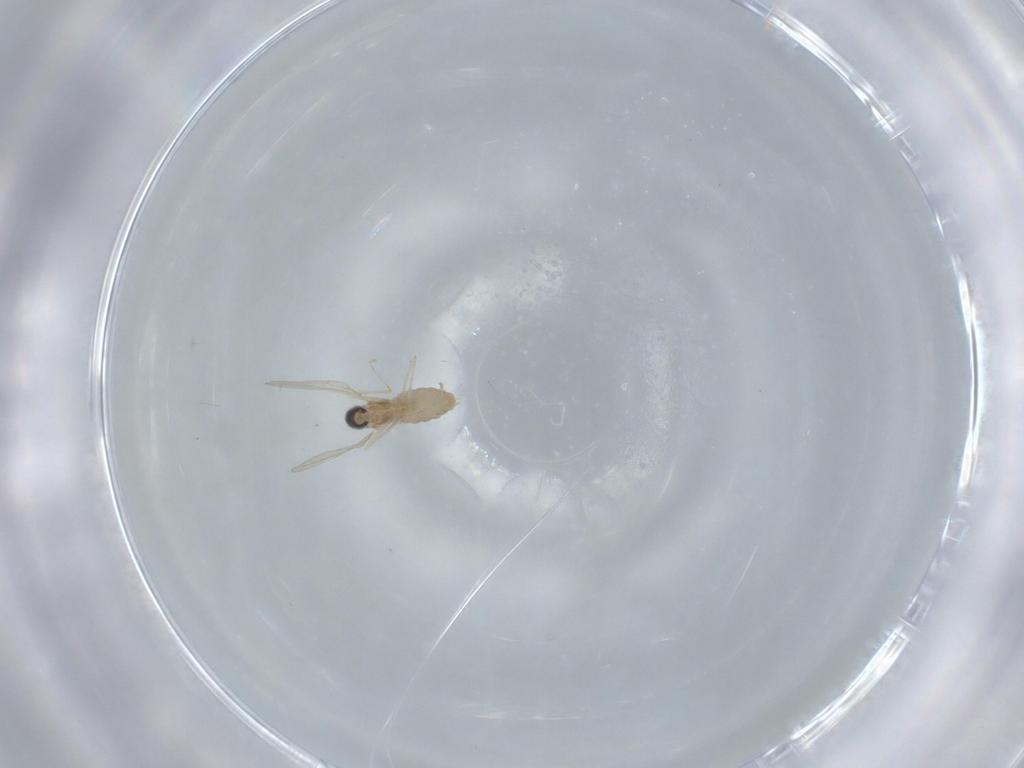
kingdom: Animalia
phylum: Arthropoda
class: Insecta
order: Diptera
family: Cecidomyiidae
